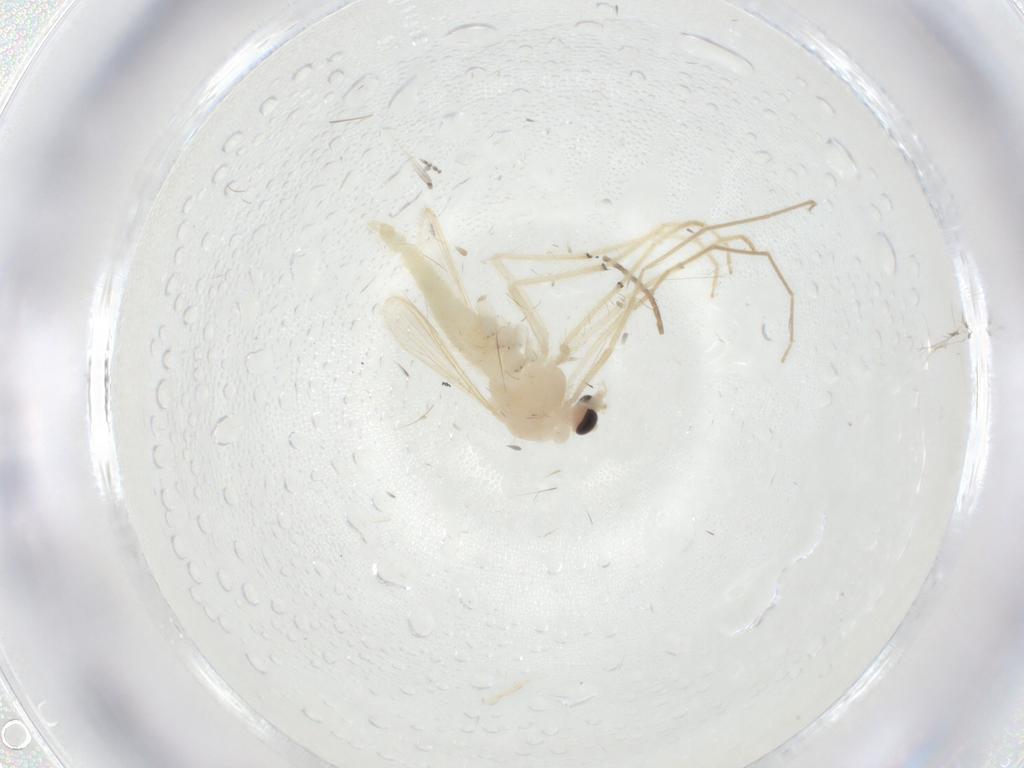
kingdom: Animalia
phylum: Arthropoda
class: Insecta
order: Diptera
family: Chironomidae
